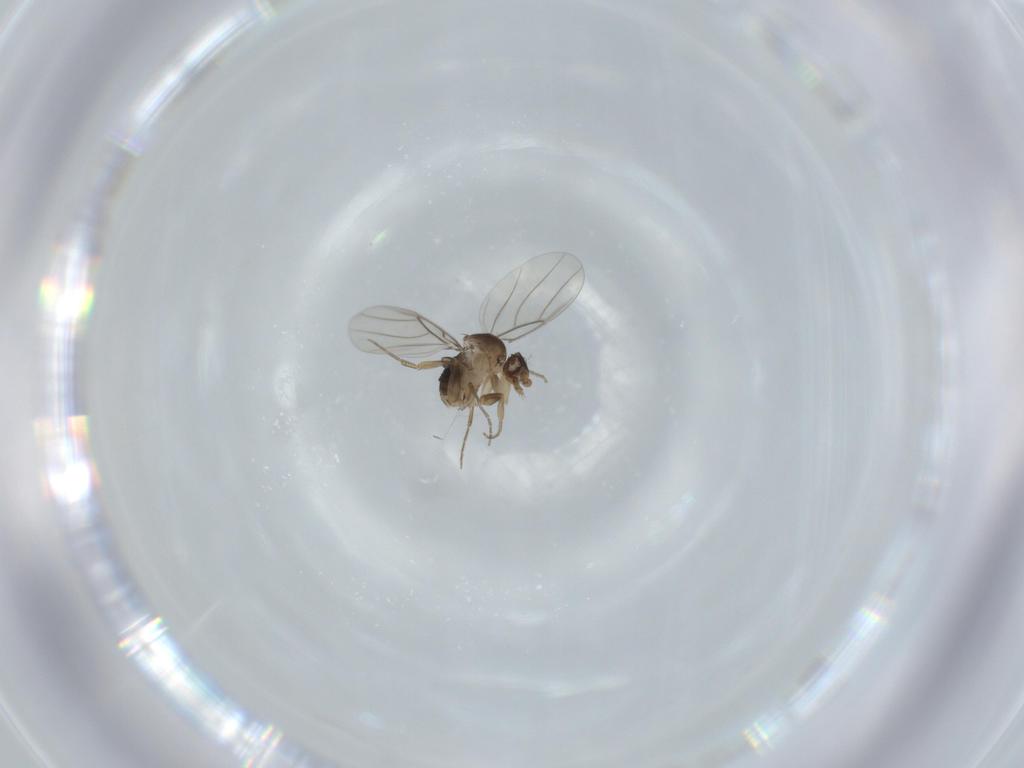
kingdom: Animalia
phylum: Arthropoda
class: Insecta
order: Diptera
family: Phoridae
